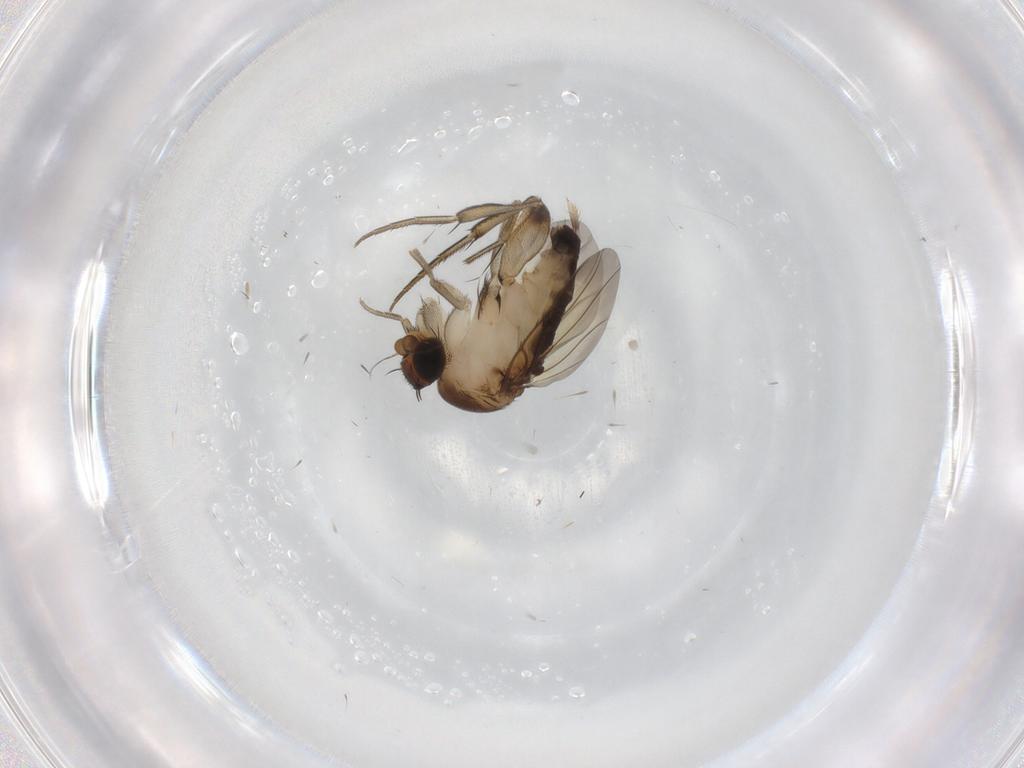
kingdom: Animalia
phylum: Arthropoda
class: Insecta
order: Diptera
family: Phoridae
